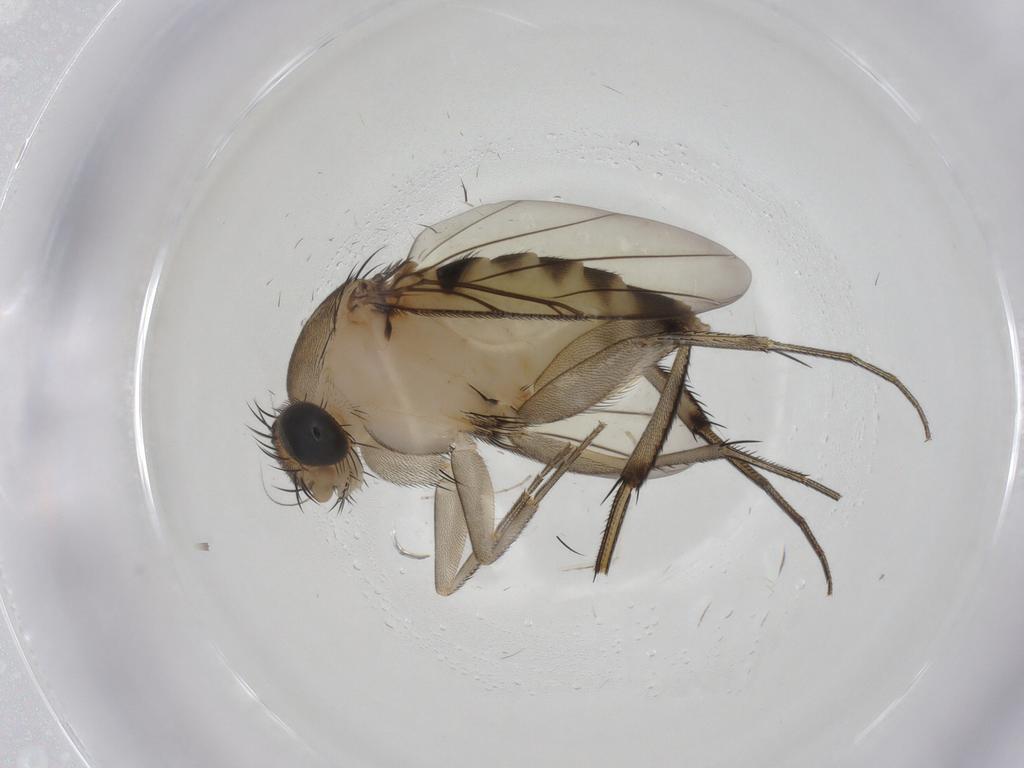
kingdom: Animalia
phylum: Arthropoda
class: Insecta
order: Diptera
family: Phoridae
